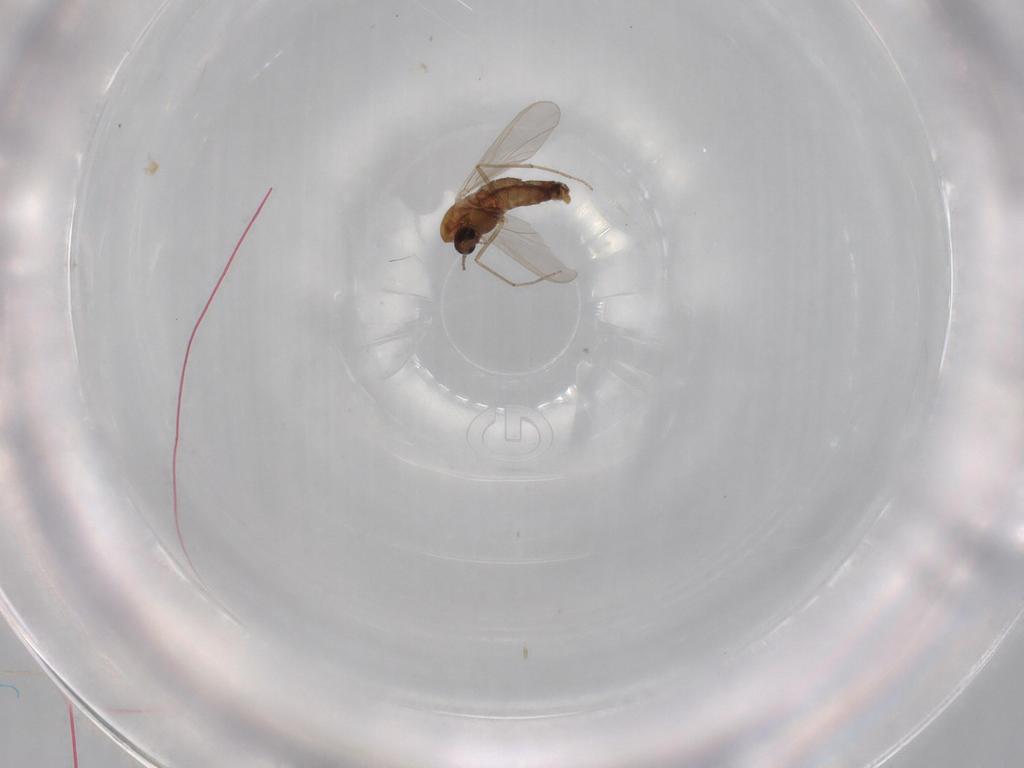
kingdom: Animalia
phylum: Arthropoda
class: Insecta
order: Diptera
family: Chironomidae
